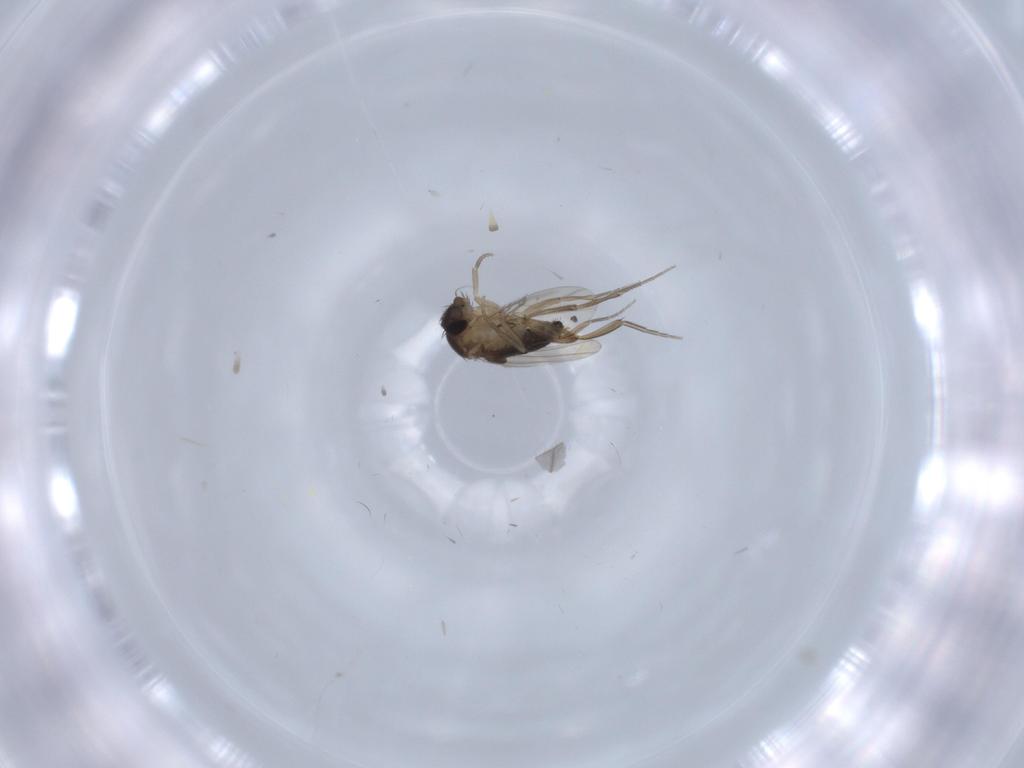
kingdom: Animalia
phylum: Arthropoda
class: Insecta
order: Diptera
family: Phoridae
